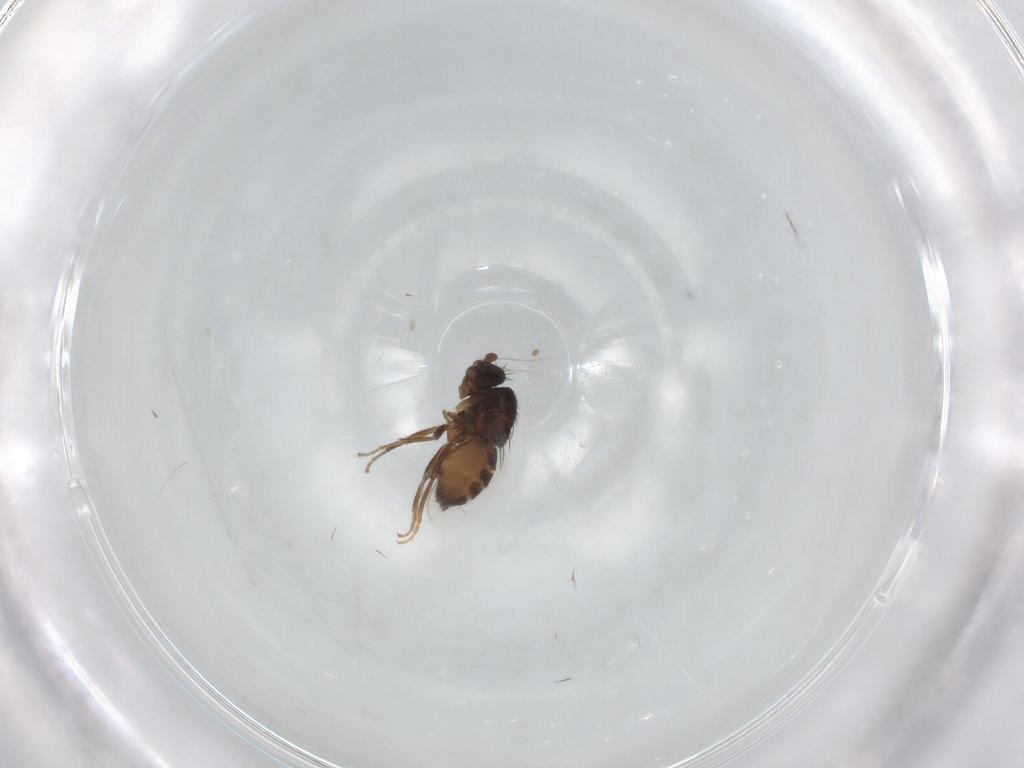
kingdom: Animalia
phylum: Arthropoda
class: Insecta
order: Diptera
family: Sphaeroceridae
